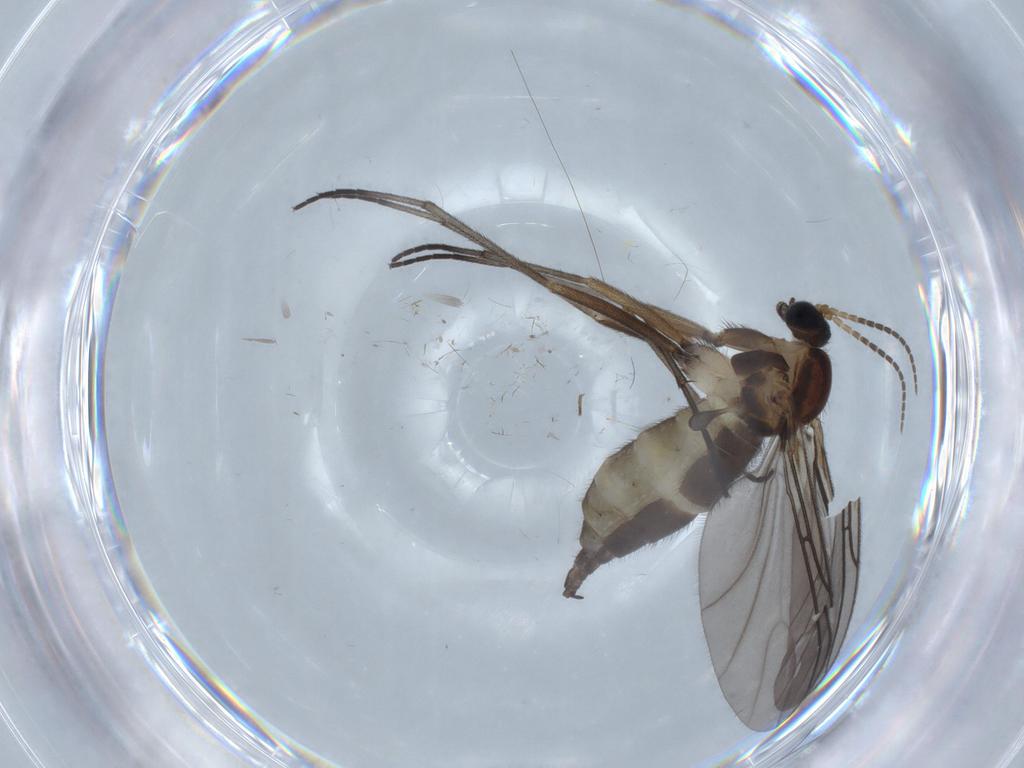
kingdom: Animalia
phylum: Arthropoda
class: Insecta
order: Diptera
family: Sciaridae
